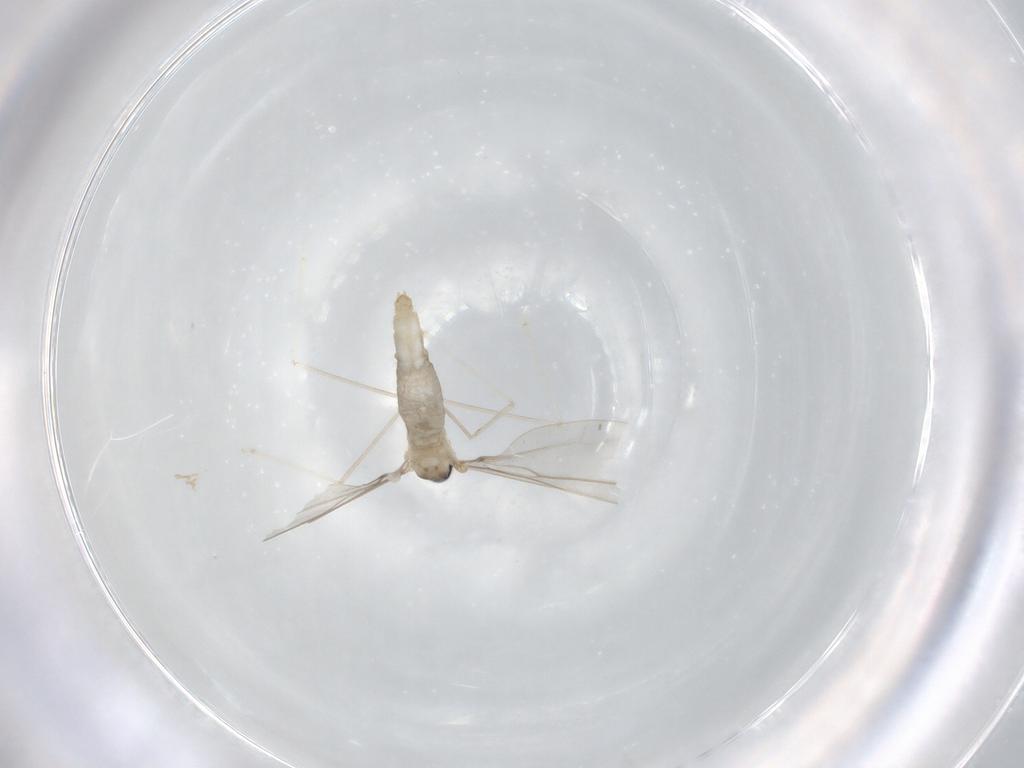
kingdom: Animalia
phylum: Arthropoda
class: Insecta
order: Diptera
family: Cecidomyiidae
